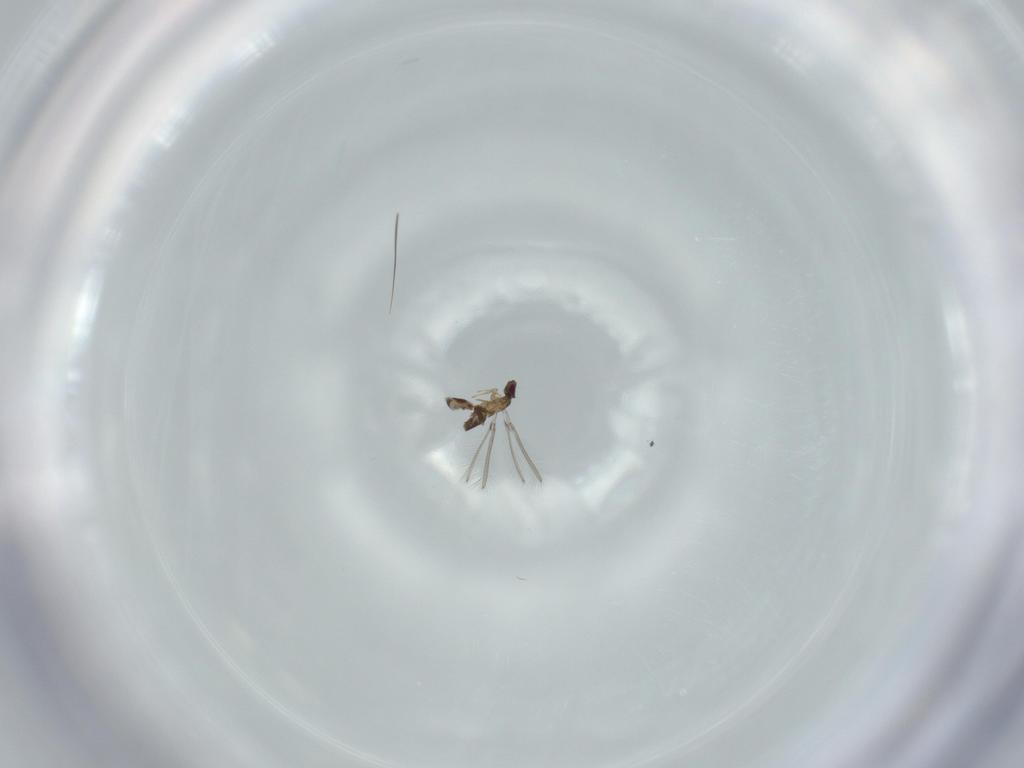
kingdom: Animalia
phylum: Arthropoda
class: Insecta
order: Hymenoptera
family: Mymaridae
